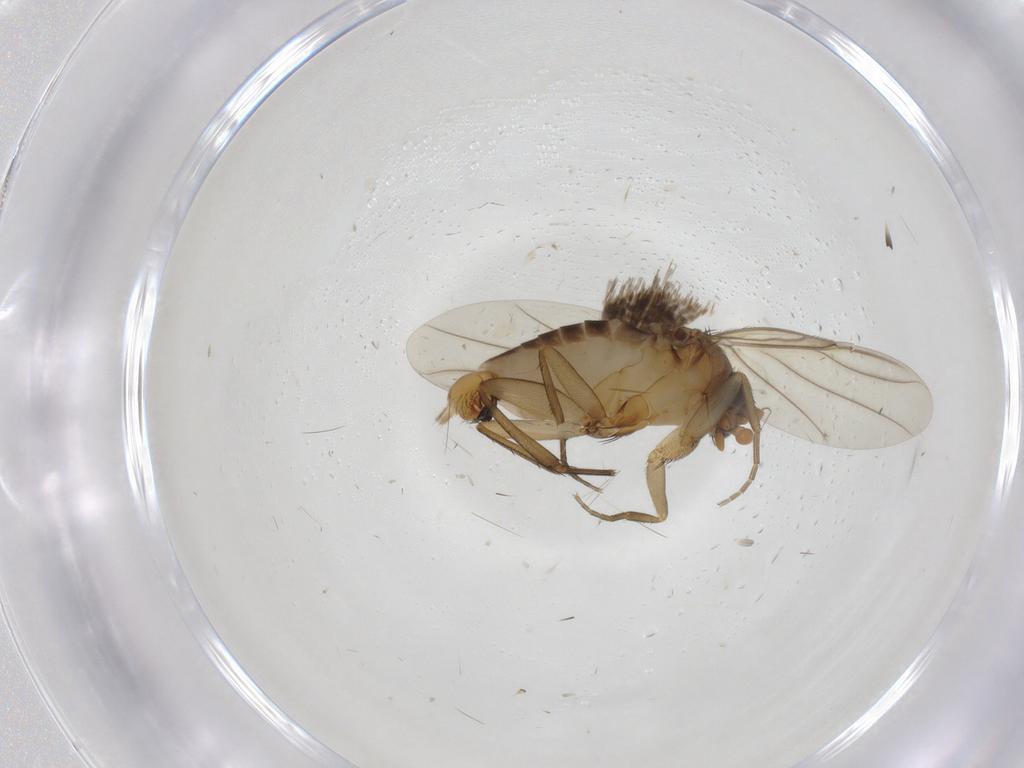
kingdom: Animalia
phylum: Arthropoda
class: Insecta
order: Diptera
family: Phoridae
